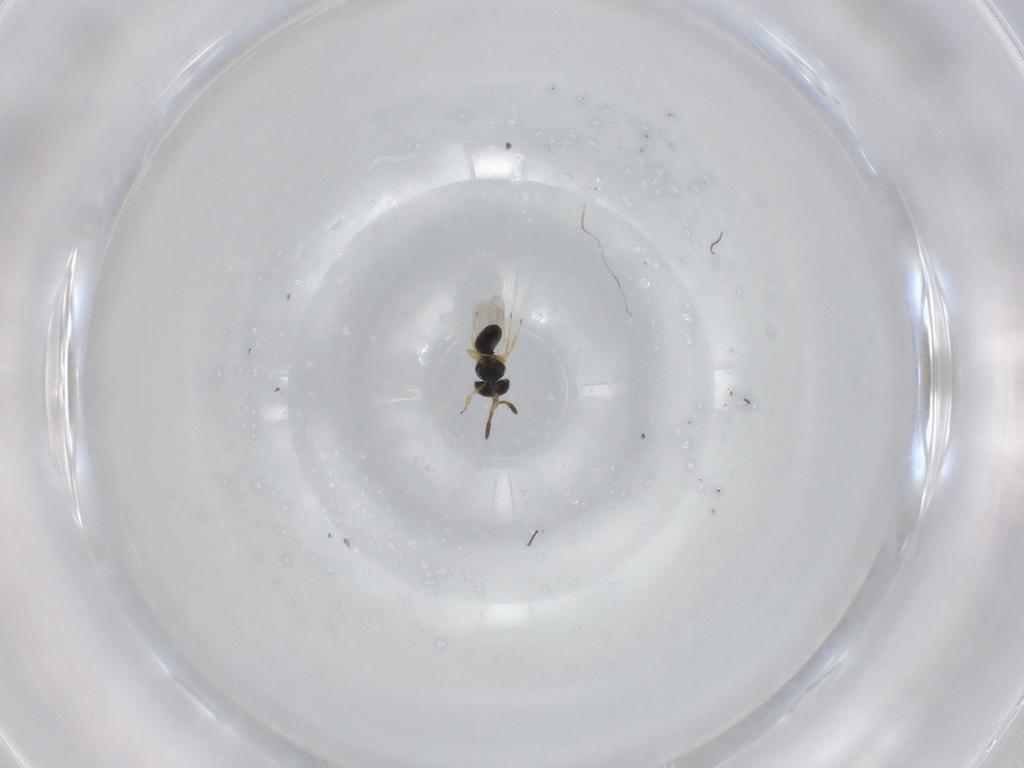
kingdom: Animalia
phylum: Arthropoda
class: Insecta
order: Hymenoptera
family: Scelionidae
